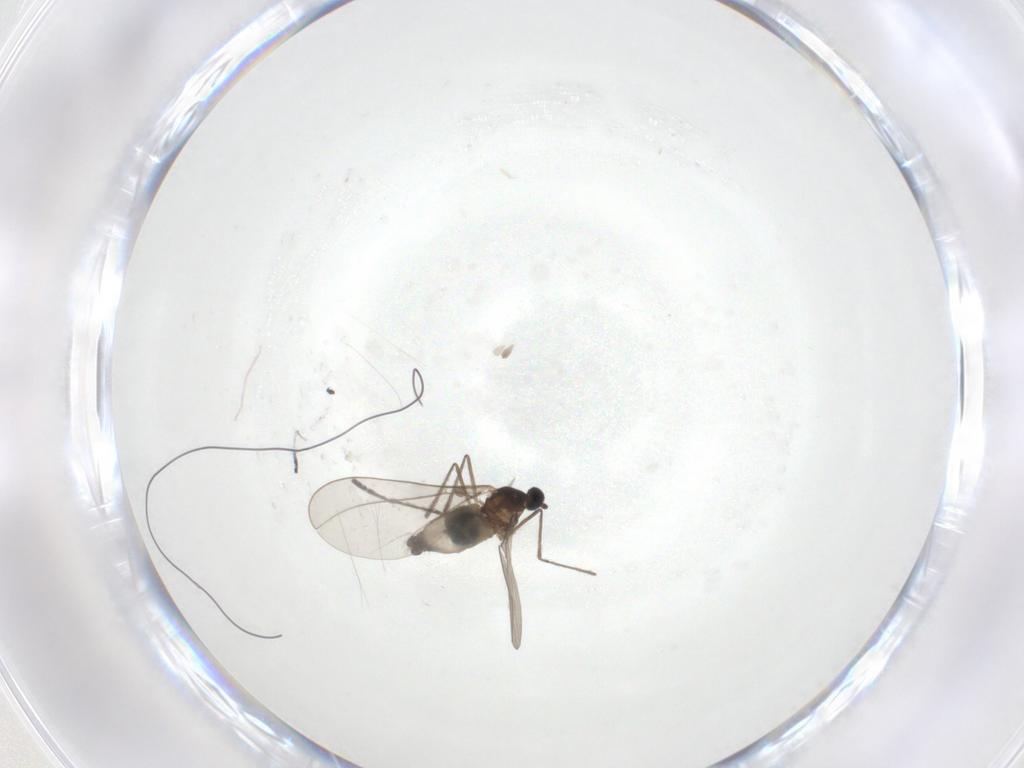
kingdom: Animalia
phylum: Arthropoda
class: Insecta
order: Diptera
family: Cecidomyiidae
